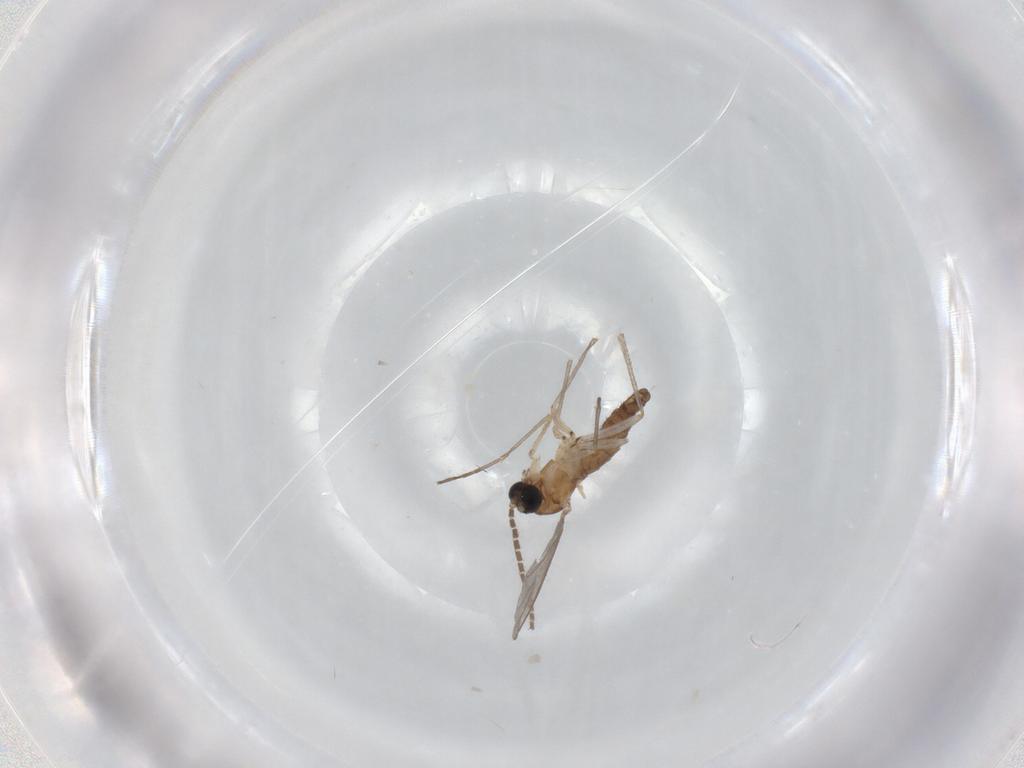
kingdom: Animalia
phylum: Arthropoda
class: Insecta
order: Diptera
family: Sciaridae
